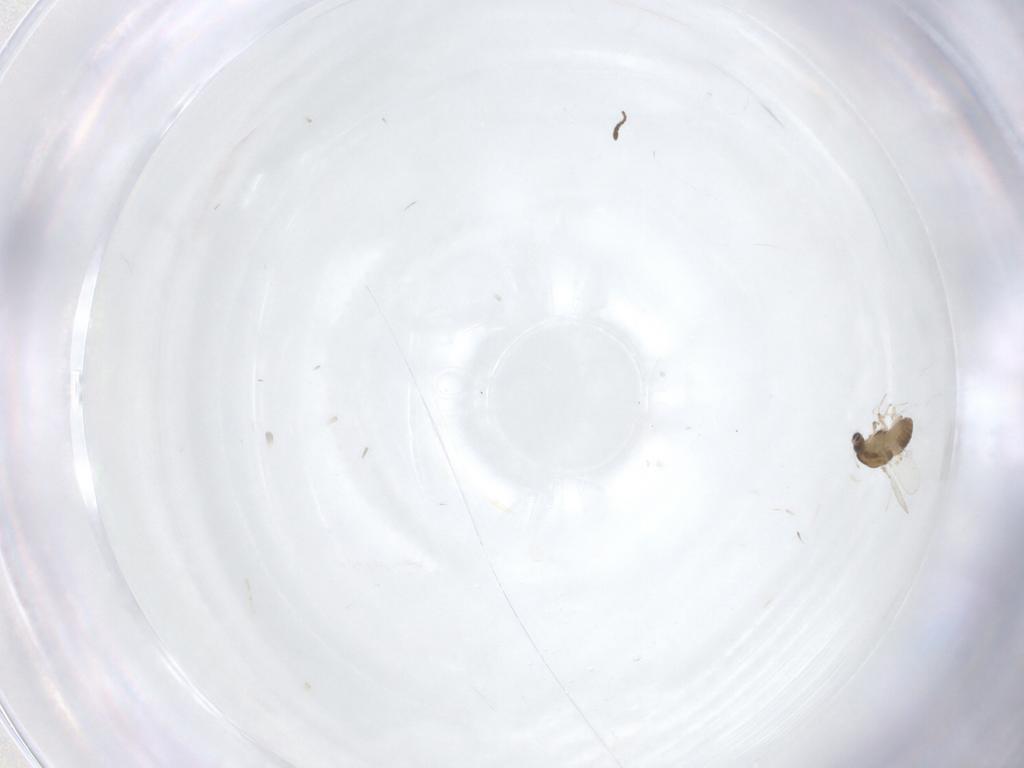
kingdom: Animalia
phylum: Arthropoda
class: Insecta
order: Diptera
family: Chironomidae
